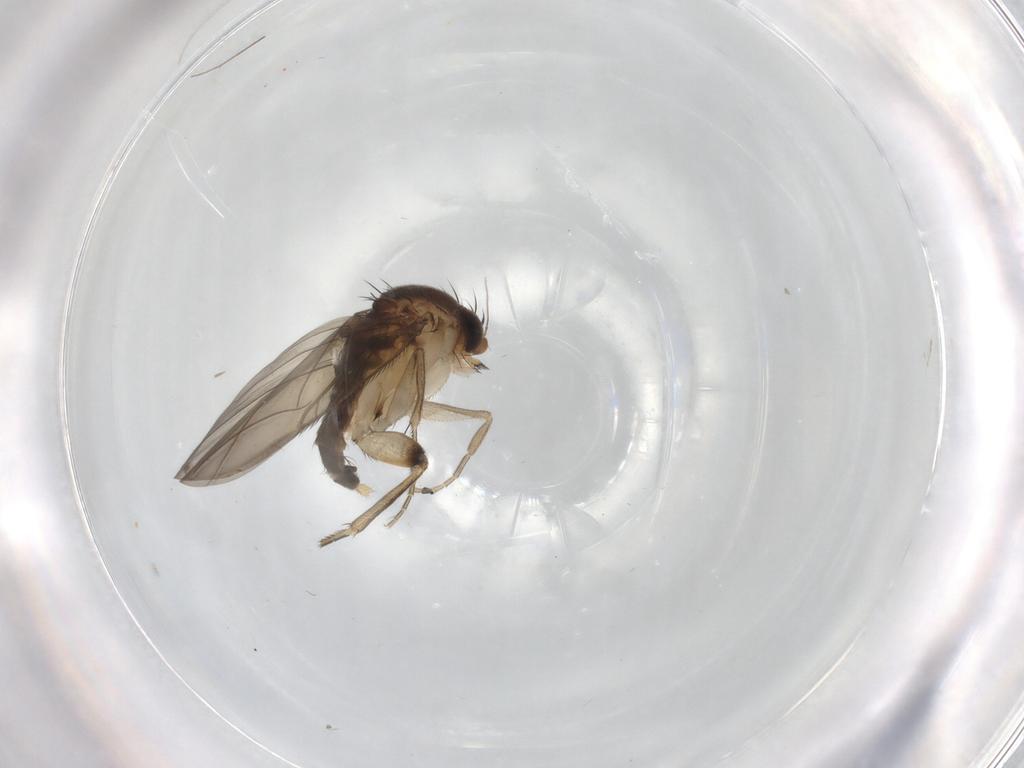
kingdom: Animalia
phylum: Arthropoda
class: Insecta
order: Diptera
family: Phoridae
